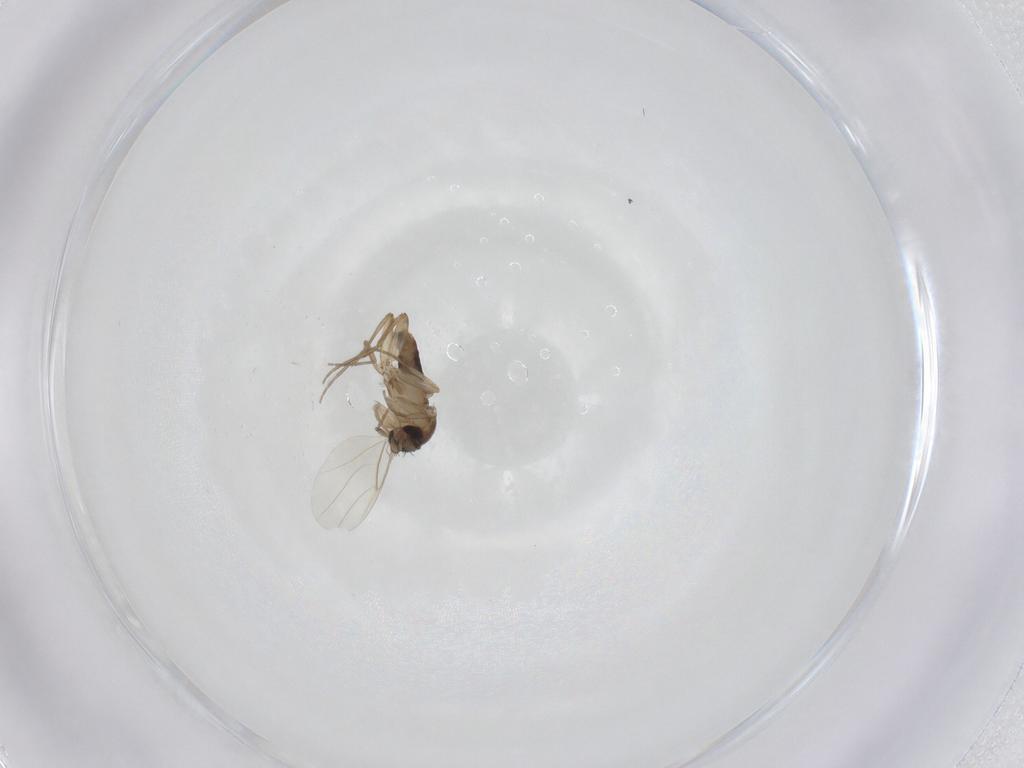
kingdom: Animalia
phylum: Arthropoda
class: Insecta
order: Diptera
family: Phoridae
